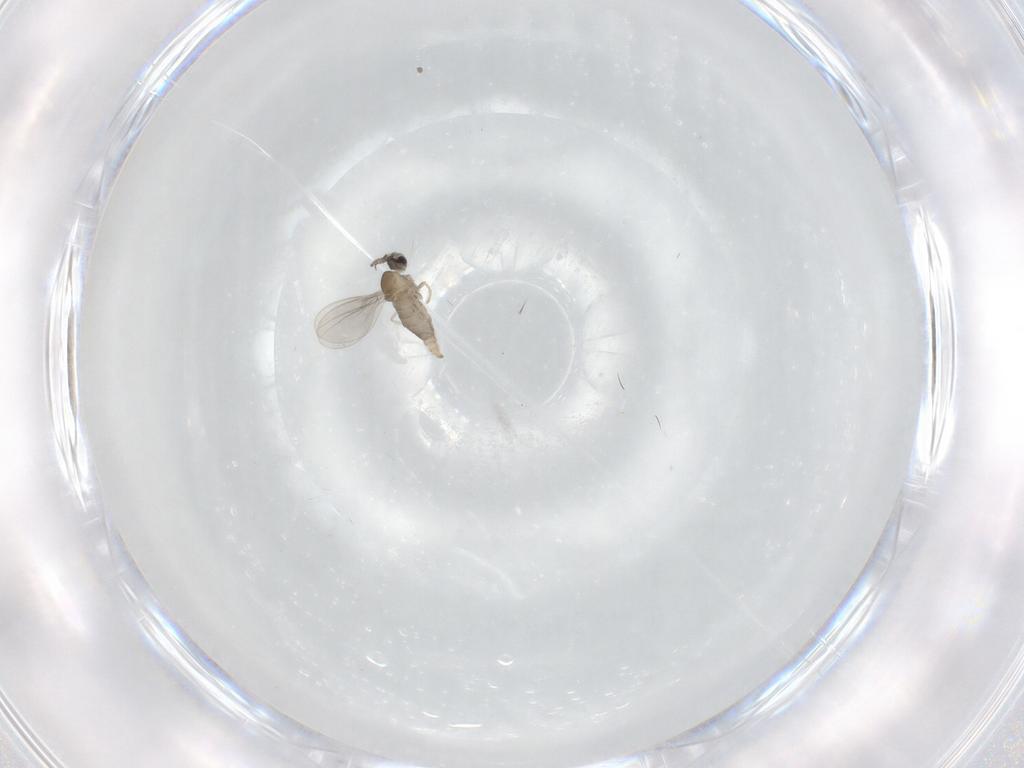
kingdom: Animalia
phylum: Arthropoda
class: Insecta
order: Diptera
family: Cecidomyiidae
